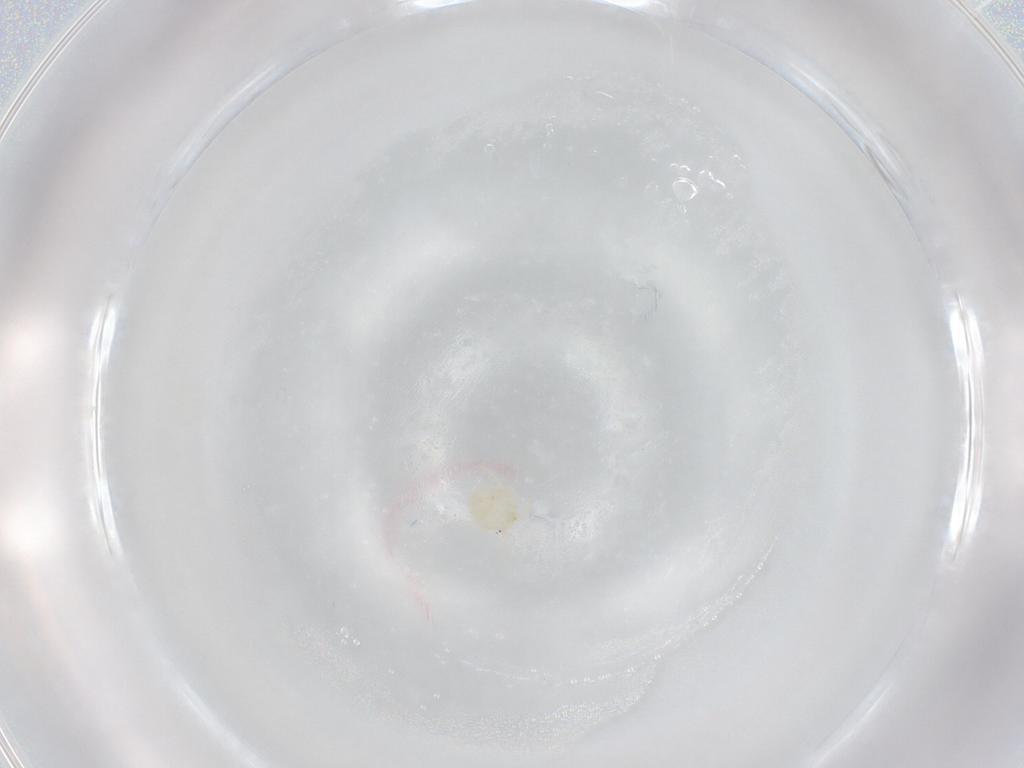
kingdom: Animalia
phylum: Arthropoda
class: Arachnida
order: Trombidiformes
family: Hydryphantidae
